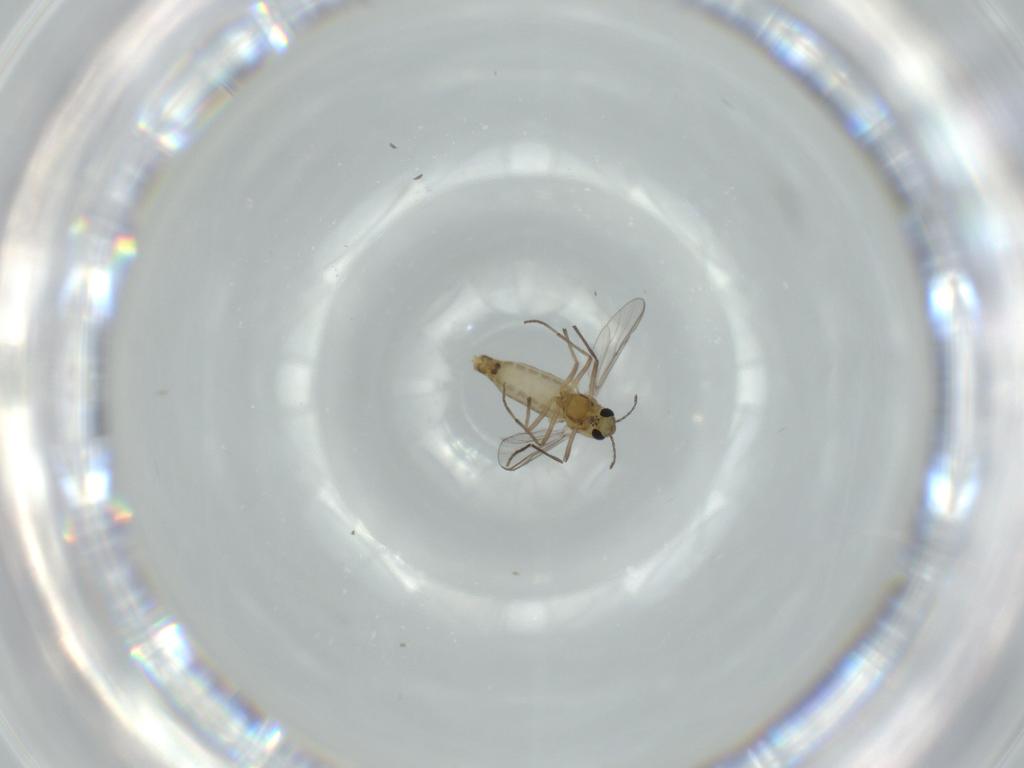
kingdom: Animalia
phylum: Arthropoda
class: Insecta
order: Diptera
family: Chironomidae
